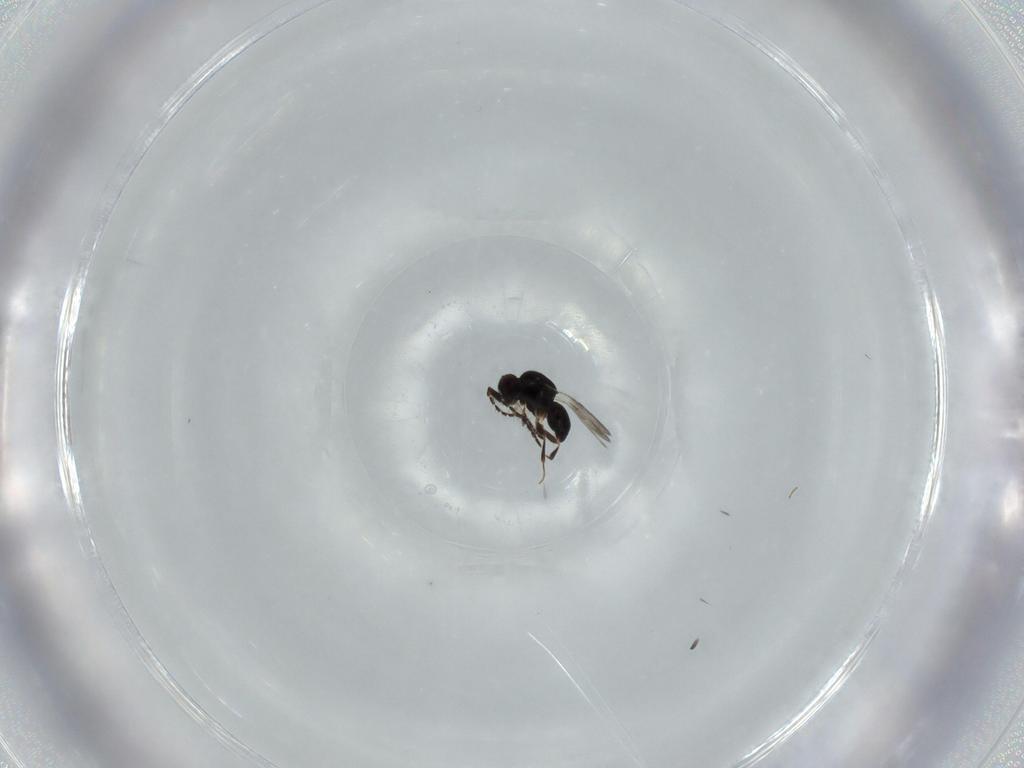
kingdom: Animalia
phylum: Arthropoda
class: Insecta
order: Hymenoptera
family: Ceraphronidae
